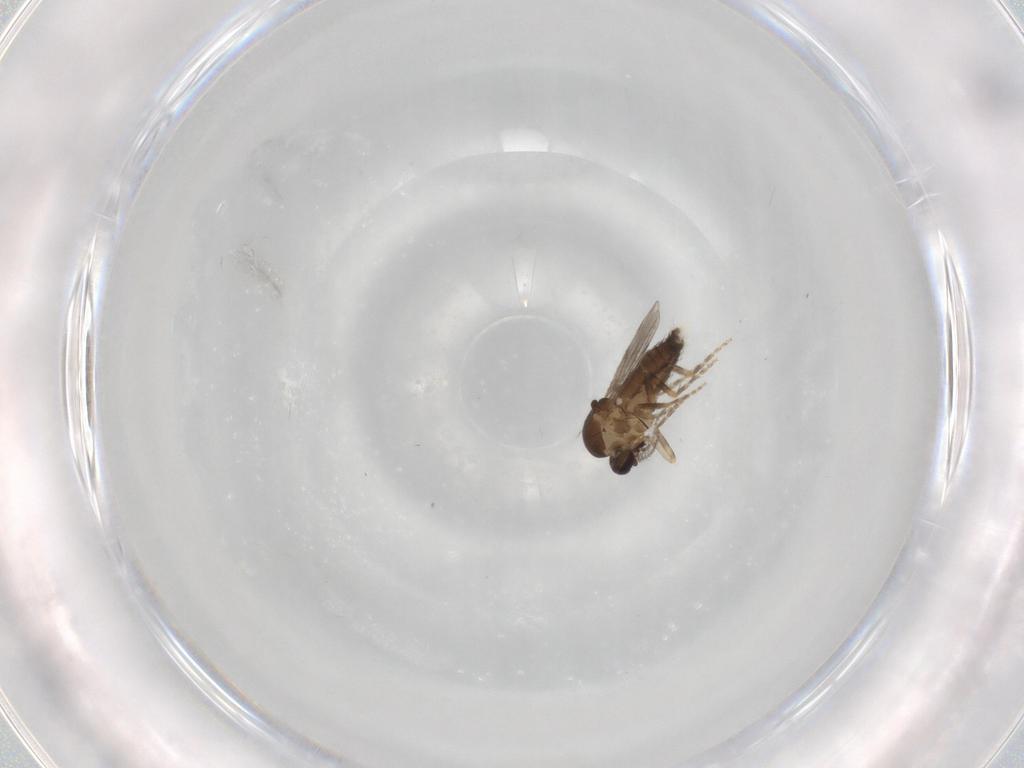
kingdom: Animalia
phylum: Arthropoda
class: Insecta
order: Diptera
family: Ceratopogonidae
